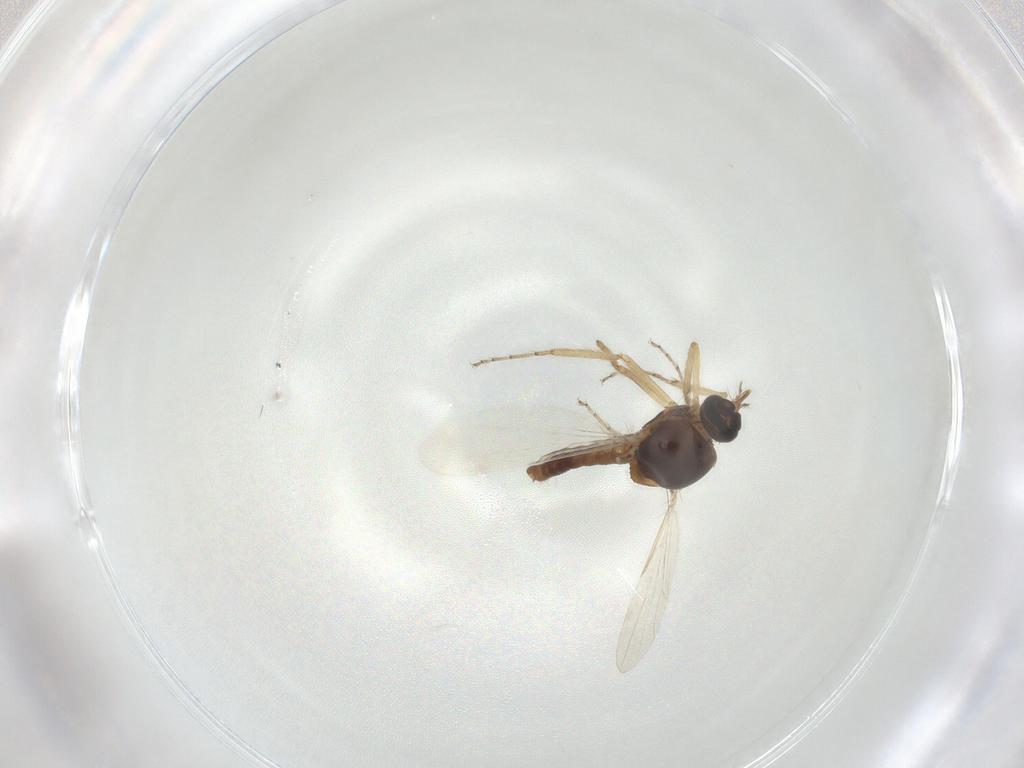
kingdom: Animalia
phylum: Arthropoda
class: Insecta
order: Diptera
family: Ceratopogonidae
